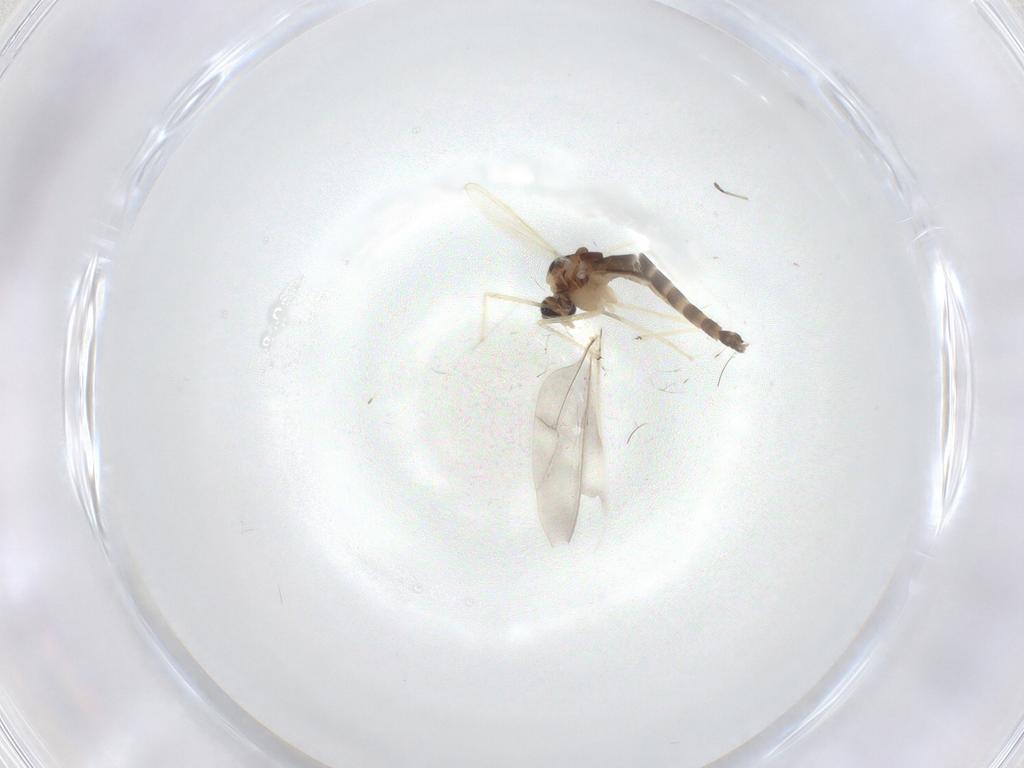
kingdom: Animalia
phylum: Arthropoda
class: Insecta
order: Diptera
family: Chironomidae
